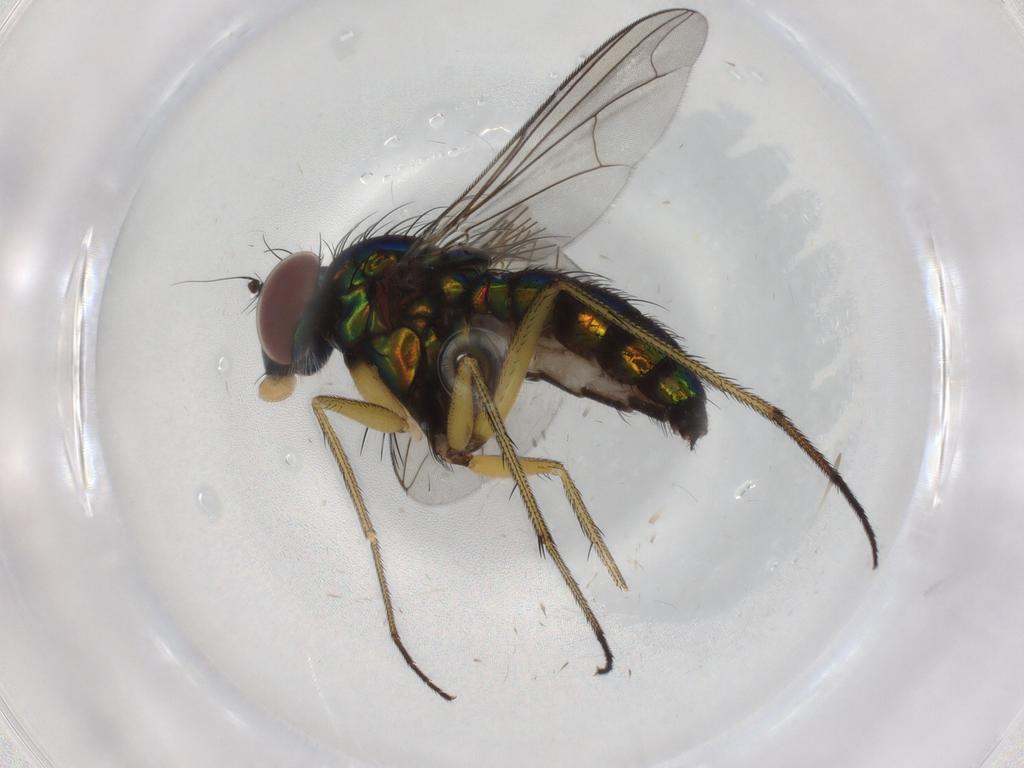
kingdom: Animalia
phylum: Arthropoda
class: Insecta
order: Diptera
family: Dolichopodidae
